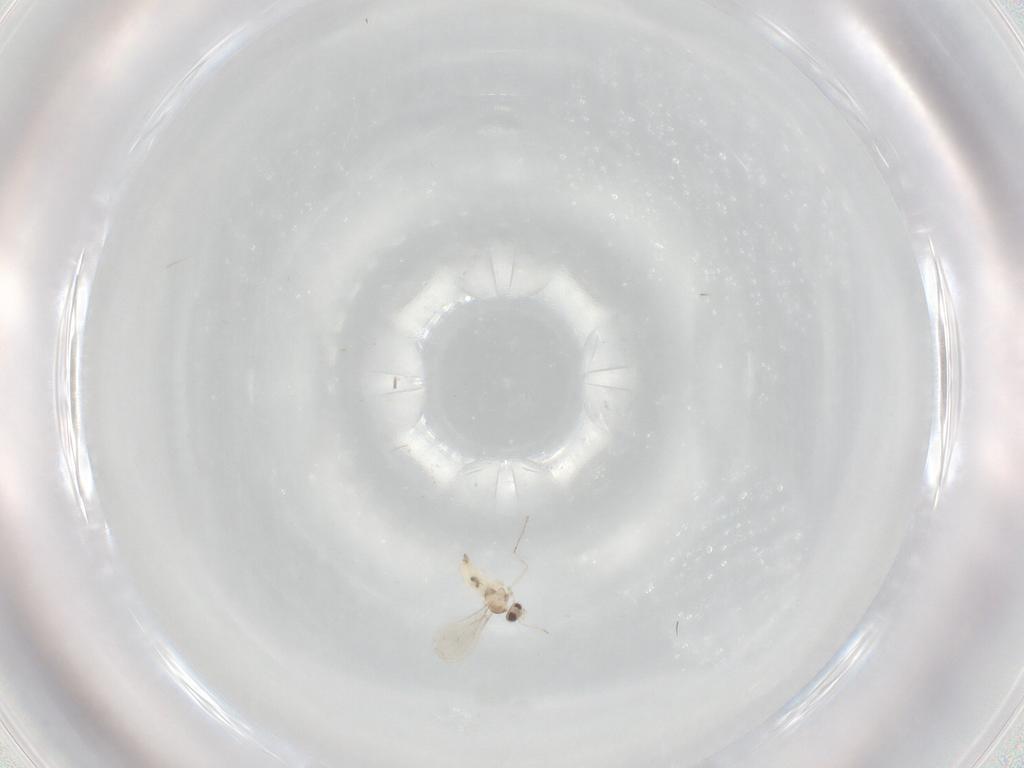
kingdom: Animalia
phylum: Arthropoda
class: Insecta
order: Diptera
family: Cecidomyiidae
